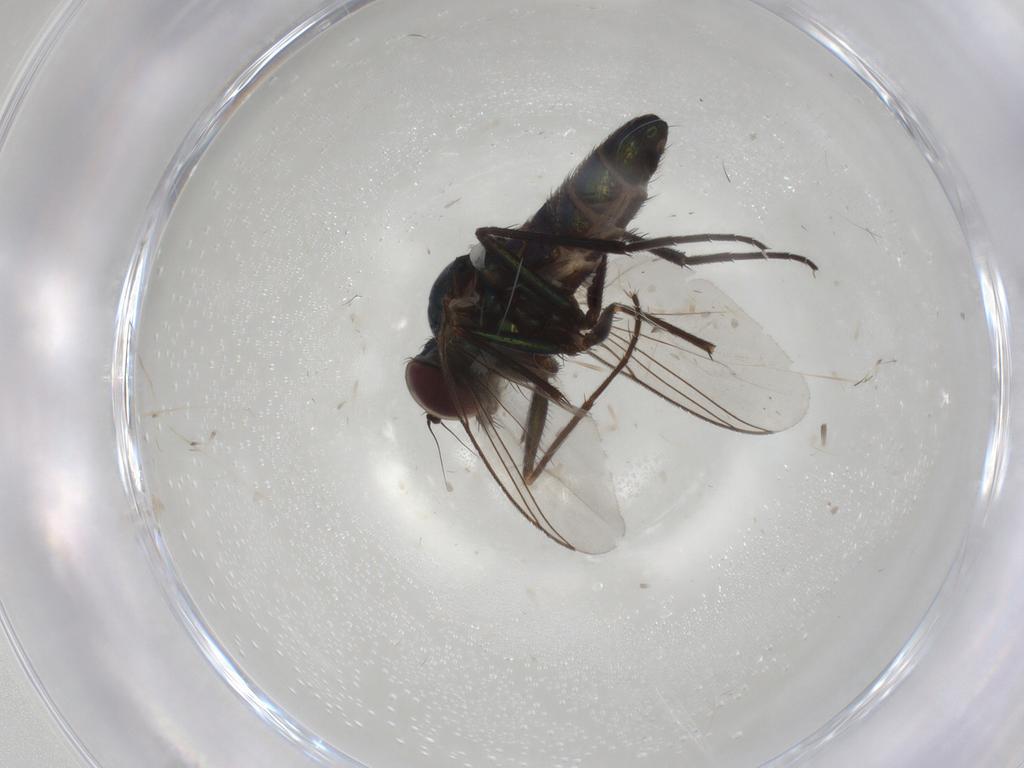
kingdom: Animalia
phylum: Arthropoda
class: Insecta
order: Diptera
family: Dolichopodidae
